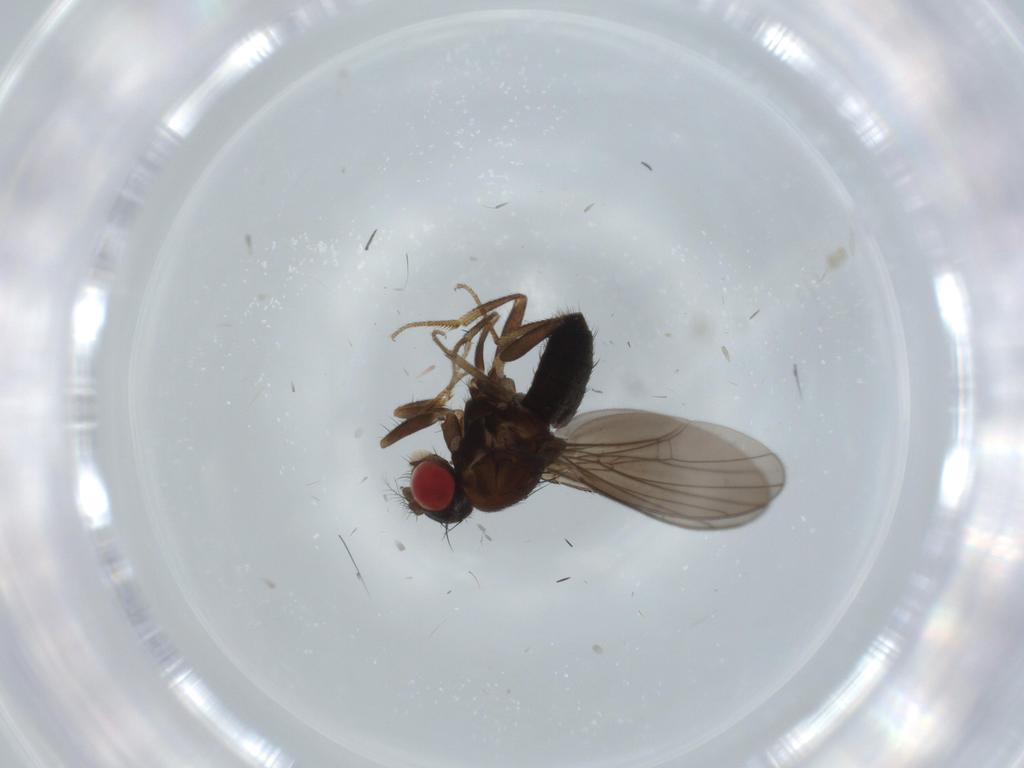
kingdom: Animalia
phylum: Arthropoda
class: Insecta
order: Diptera
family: Drosophilidae
